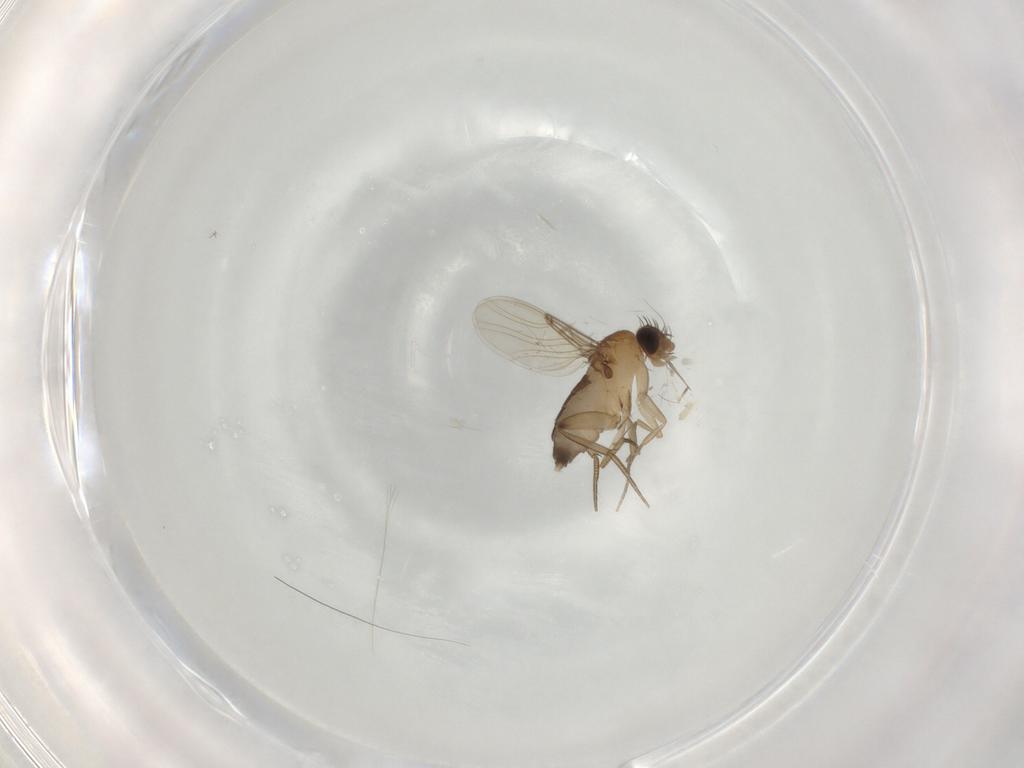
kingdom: Animalia
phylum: Arthropoda
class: Insecta
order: Diptera
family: Phoridae
